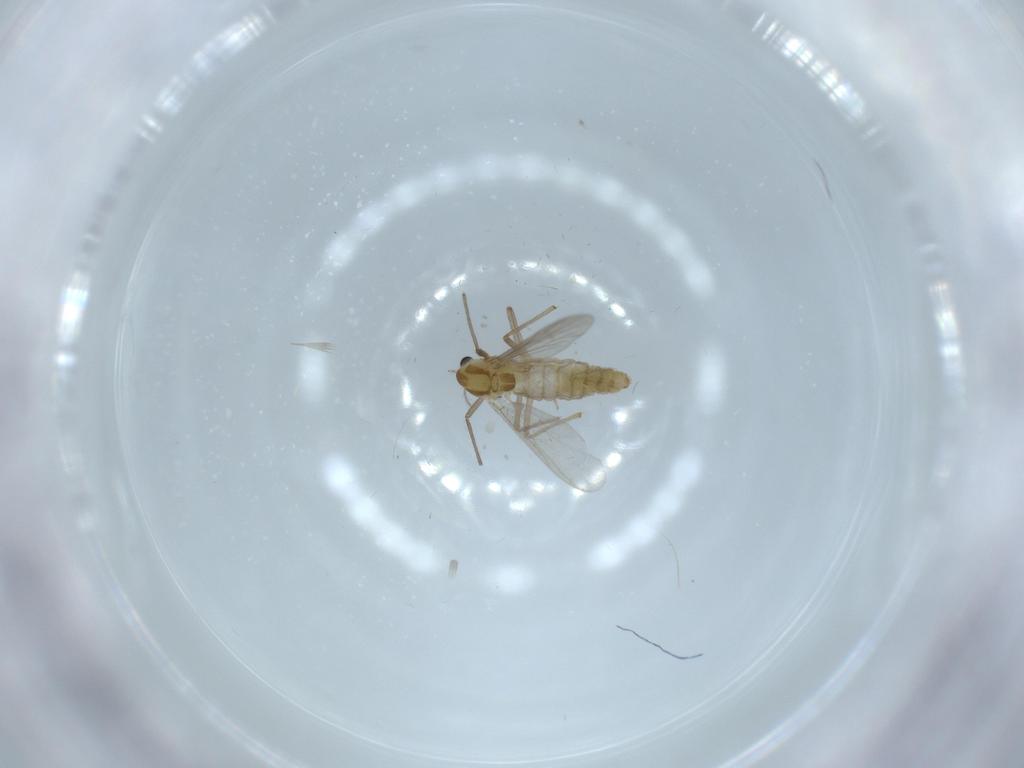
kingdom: Animalia
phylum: Arthropoda
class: Insecta
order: Diptera
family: Chironomidae
